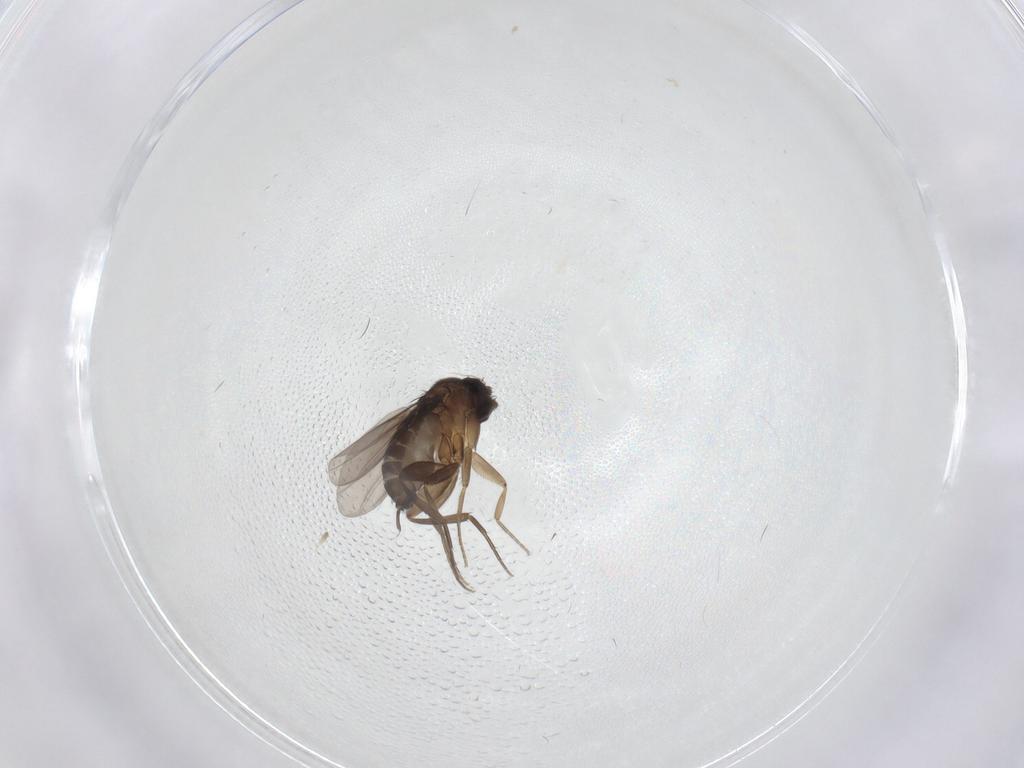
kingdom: Animalia
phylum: Arthropoda
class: Insecta
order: Diptera
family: Phoridae
